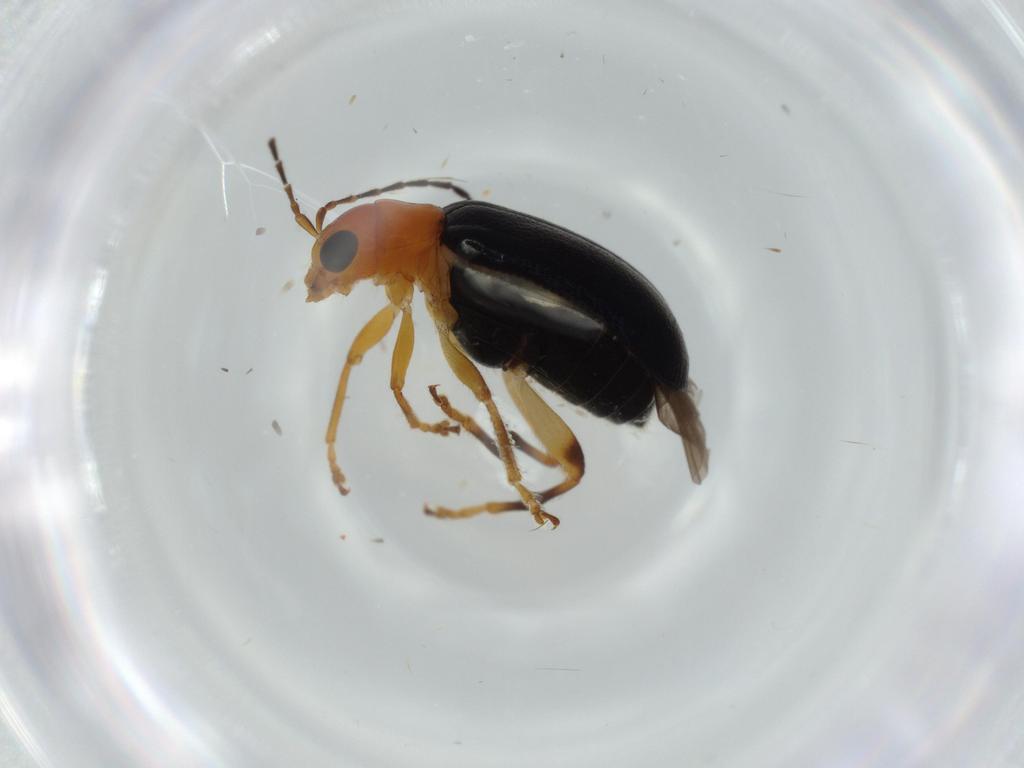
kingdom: Animalia
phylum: Arthropoda
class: Insecta
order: Coleoptera
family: Chrysomelidae
